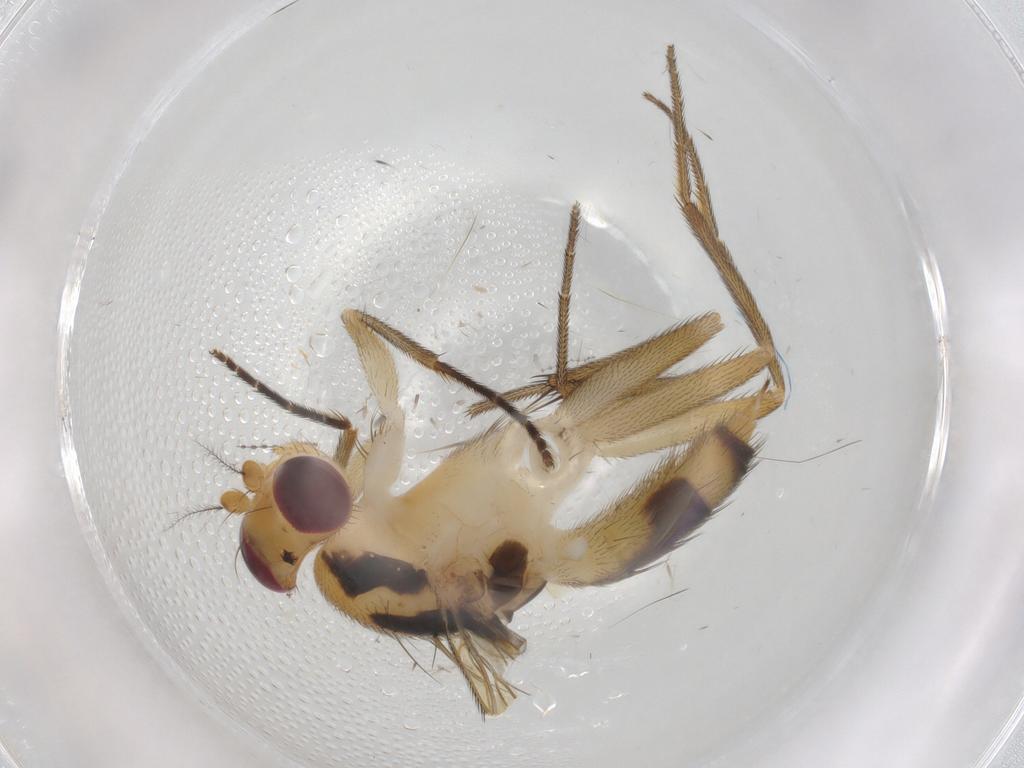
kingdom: Animalia
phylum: Arthropoda
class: Insecta
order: Diptera
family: Clusiidae
